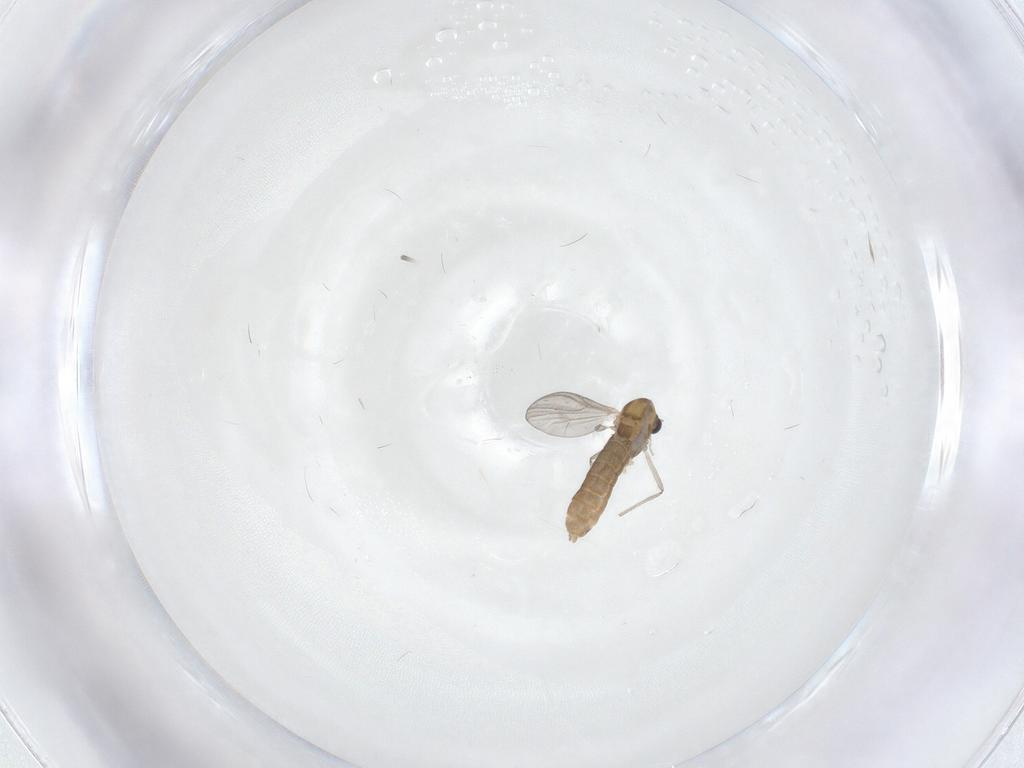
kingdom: Animalia
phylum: Arthropoda
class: Insecta
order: Diptera
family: Chironomidae
